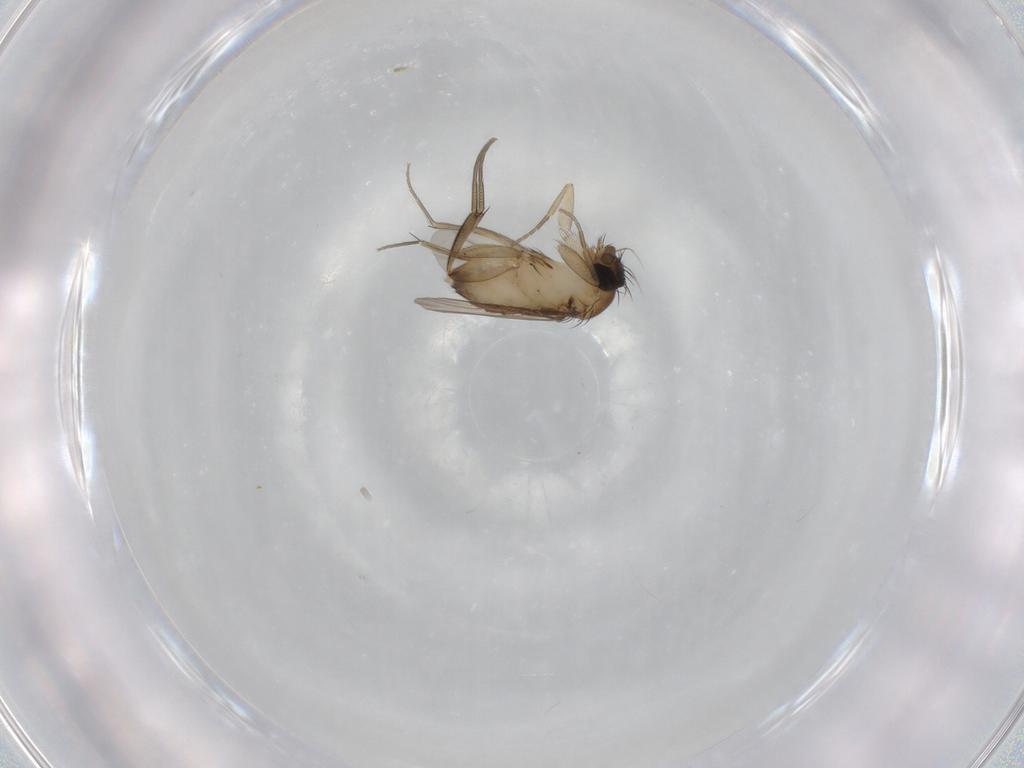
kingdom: Animalia
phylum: Arthropoda
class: Insecta
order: Diptera
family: Phoridae
